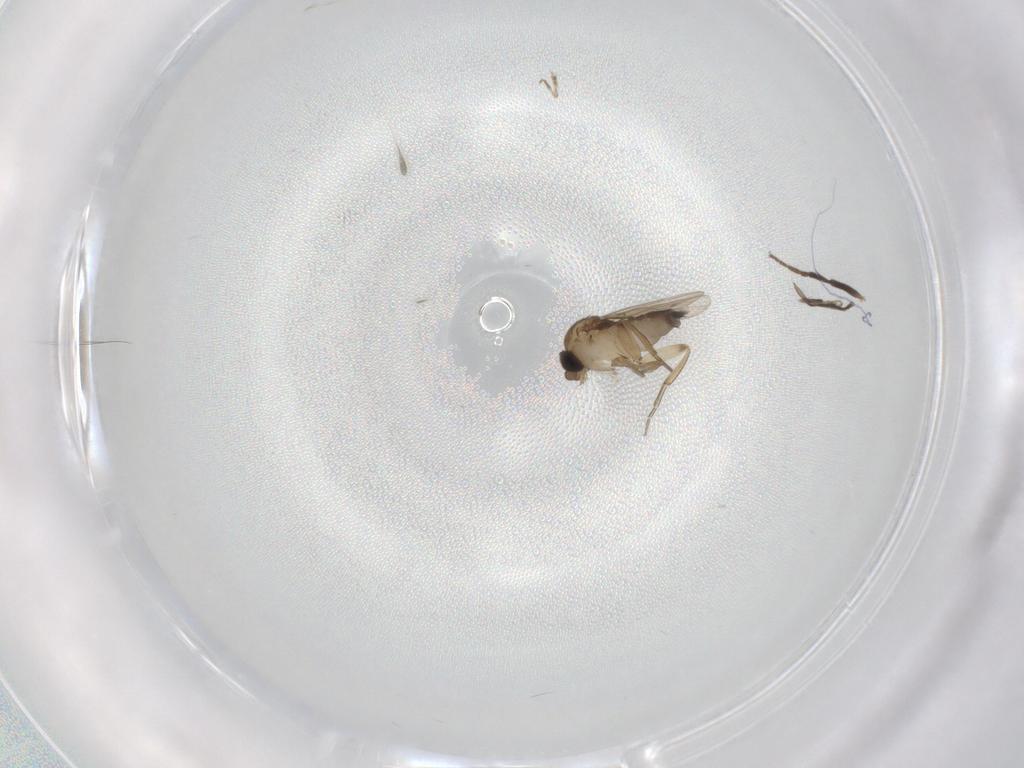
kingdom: Animalia
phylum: Arthropoda
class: Insecta
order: Diptera
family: Phoridae
